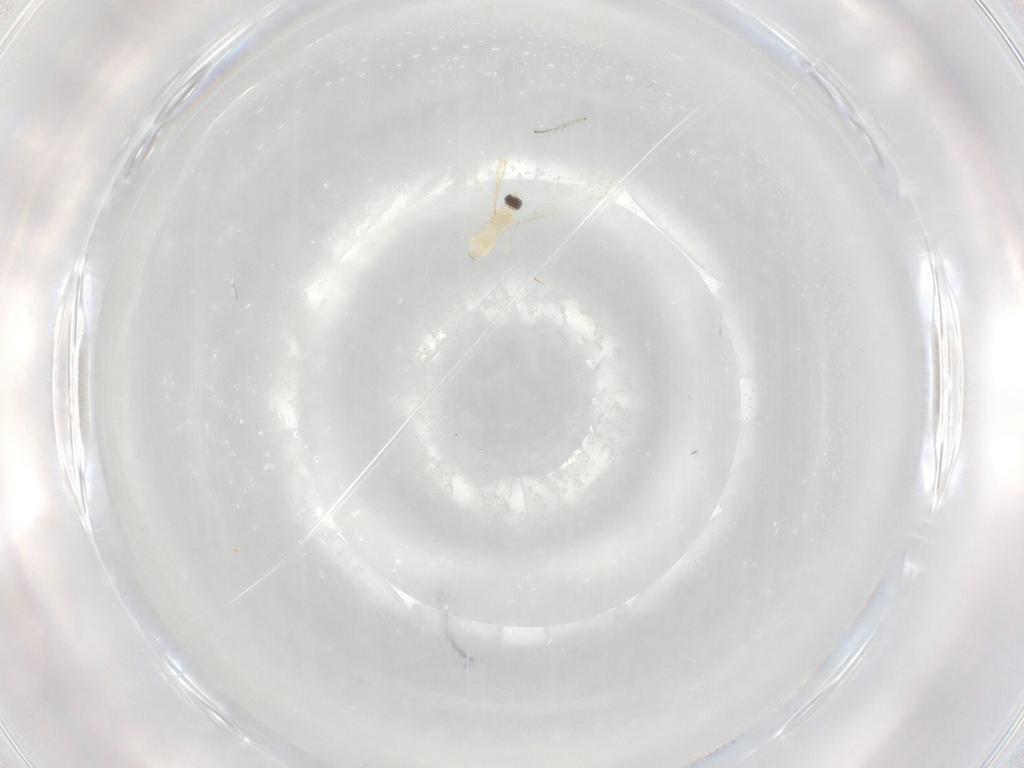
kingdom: Animalia
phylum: Arthropoda
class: Insecta
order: Diptera
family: Cecidomyiidae
